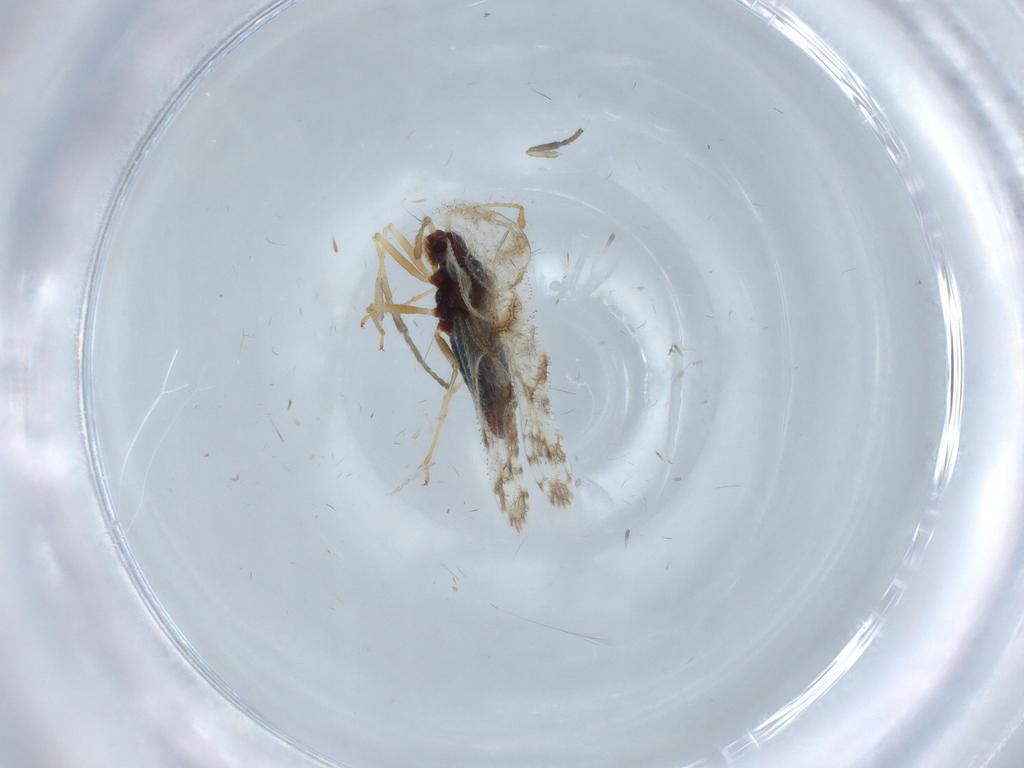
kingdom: Animalia
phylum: Arthropoda
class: Insecta
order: Hemiptera
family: Tingidae
